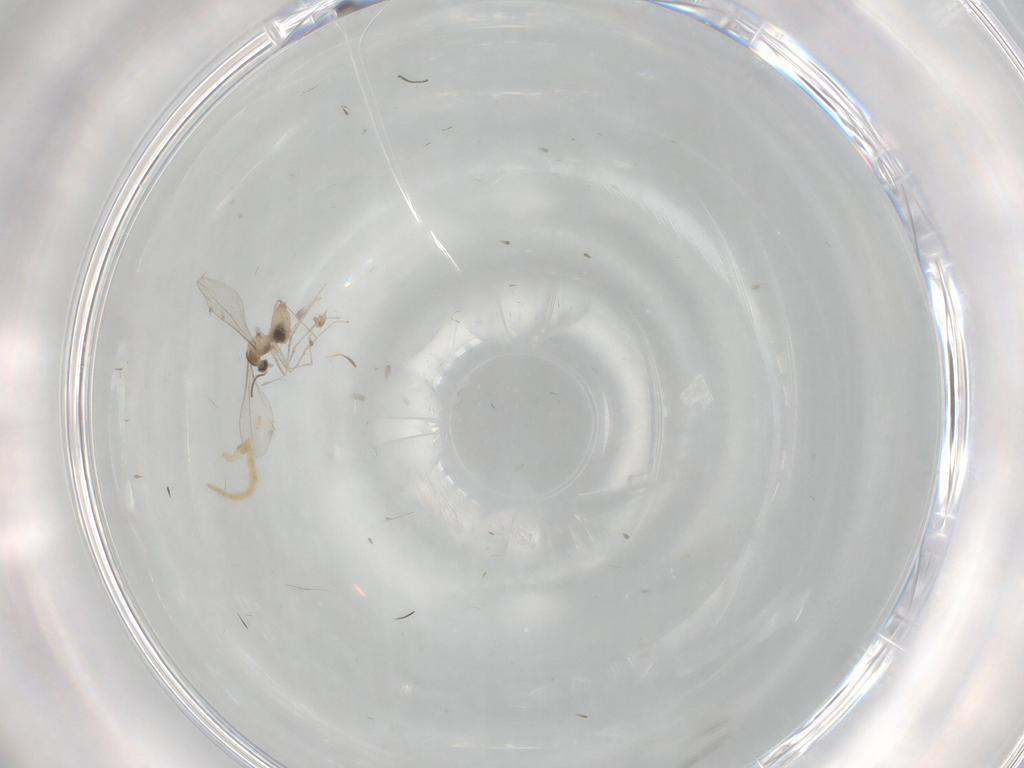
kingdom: Animalia
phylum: Arthropoda
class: Insecta
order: Diptera
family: Cecidomyiidae
